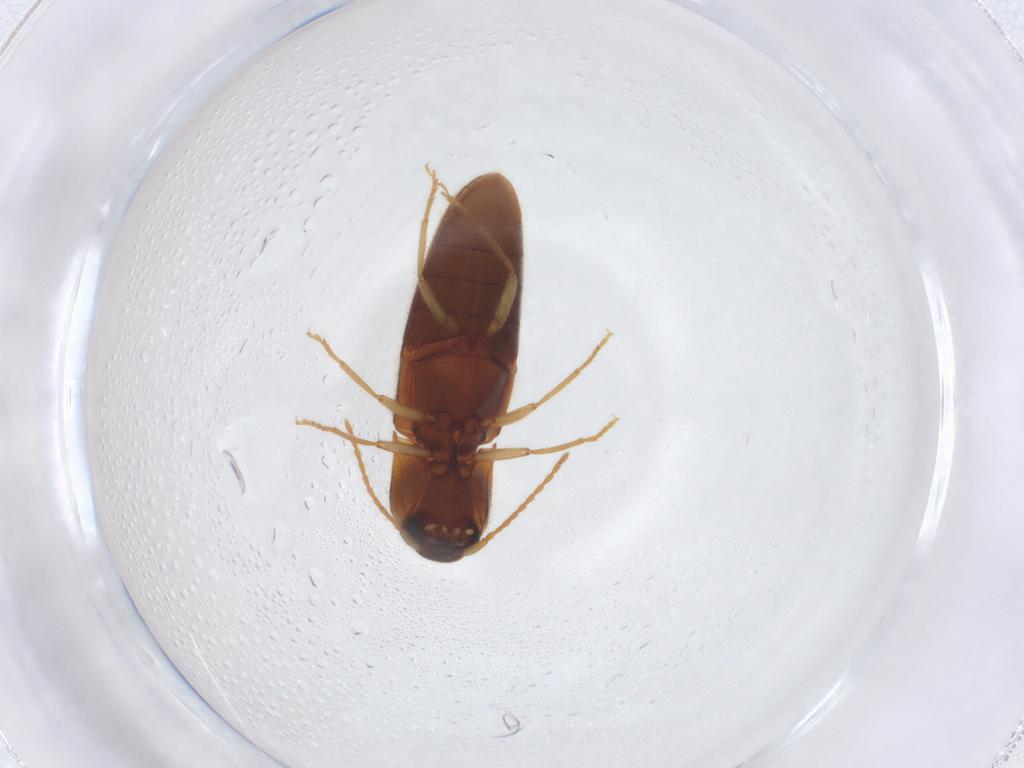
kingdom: Animalia
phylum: Arthropoda
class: Insecta
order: Coleoptera
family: Elateridae
